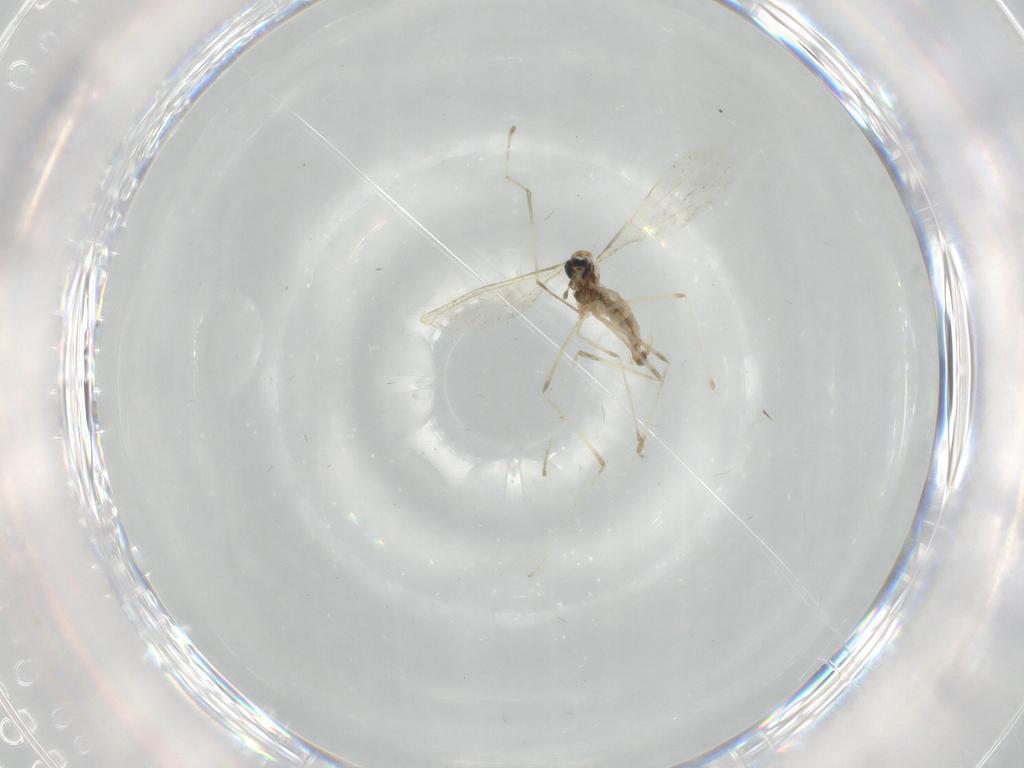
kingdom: Animalia
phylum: Arthropoda
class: Insecta
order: Diptera
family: Cecidomyiidae
